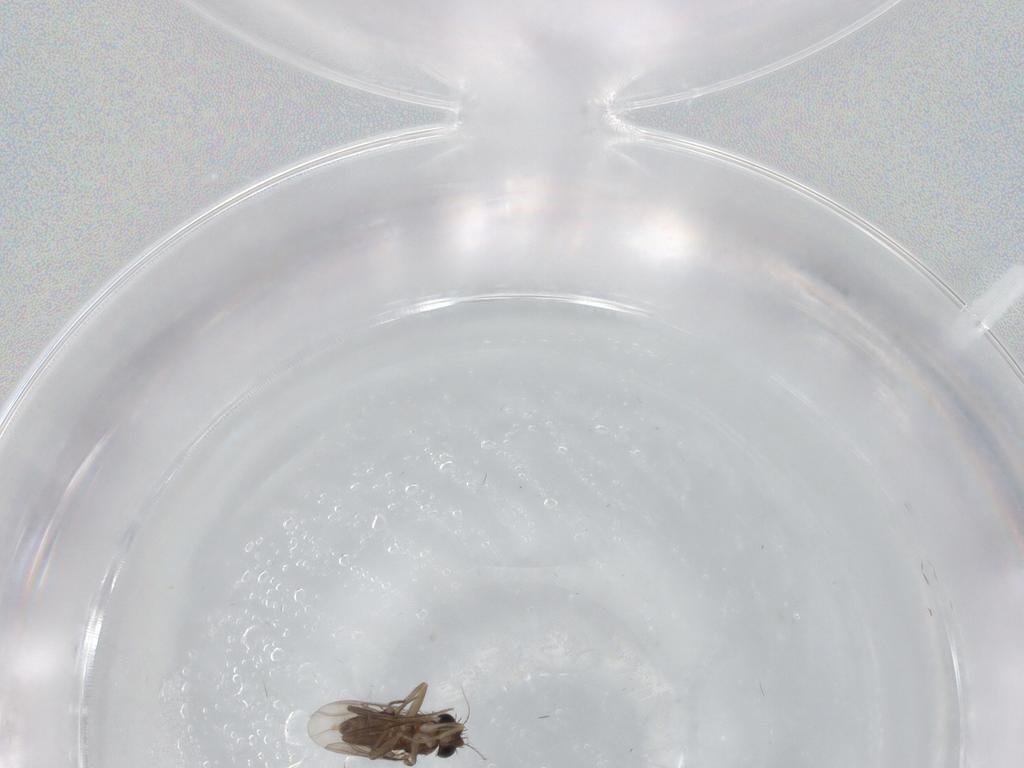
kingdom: Animalia
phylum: Arthropoda
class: Insecta
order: Diptera
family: Phoridae
